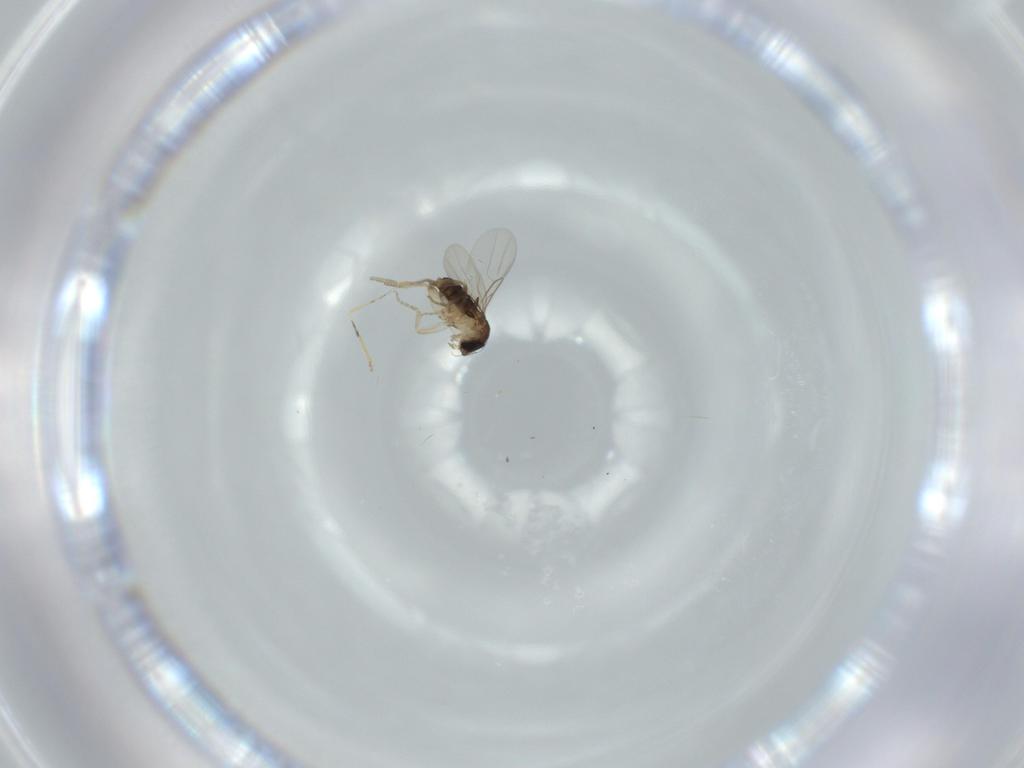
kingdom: Animalia
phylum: Arthropoda
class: Insecta
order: Diptera
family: Phoridae
